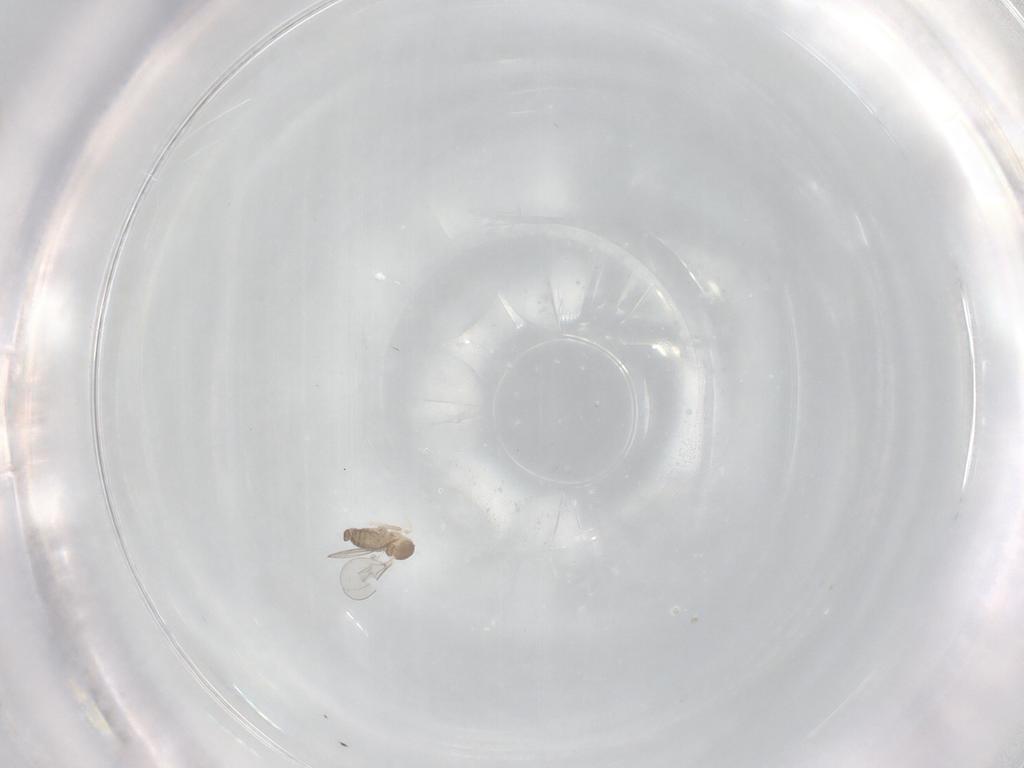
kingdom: Animalia
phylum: Arthropoda
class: Insecta
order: Diptera
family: Cecidomyiidae
